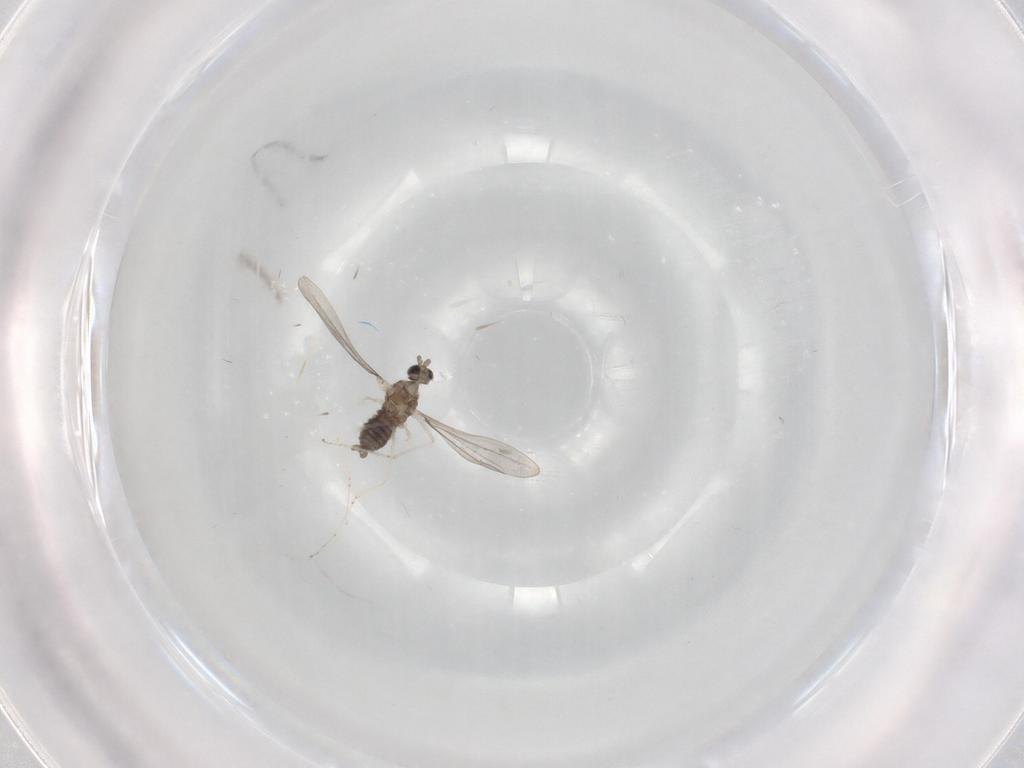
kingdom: Animalia
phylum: Arthropoda
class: Insecta
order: Diptera
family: Cecidomyiidae
